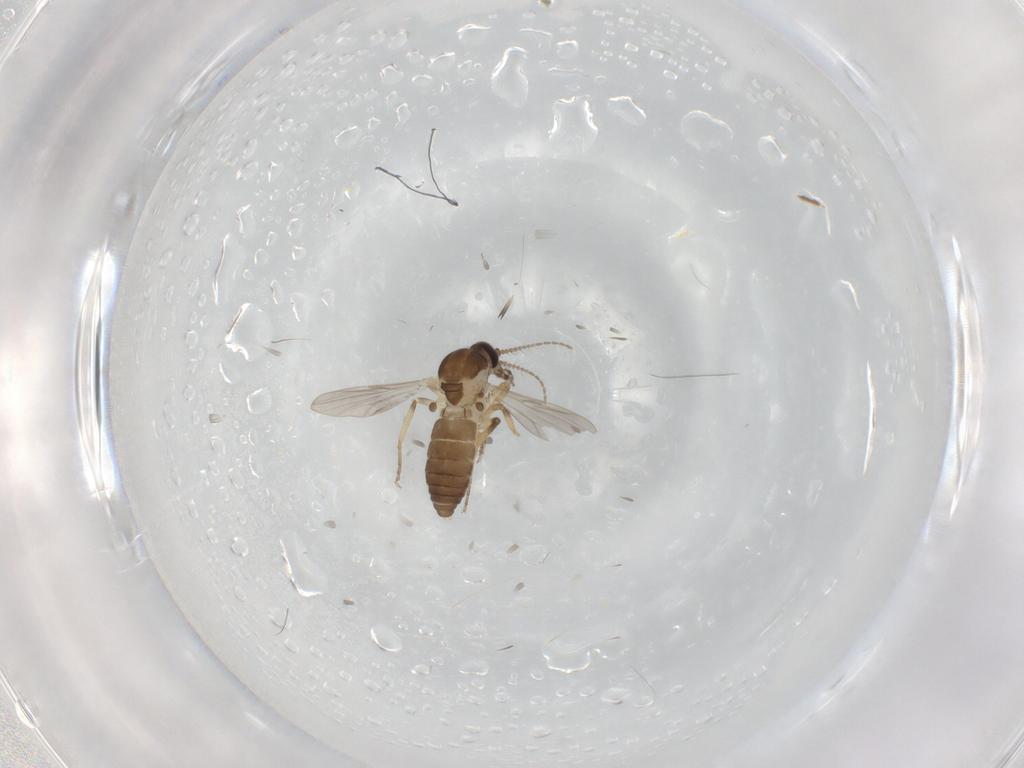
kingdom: Animalia
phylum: Arthropoda
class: Insecta
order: Diptera
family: Ceratopogonidae
